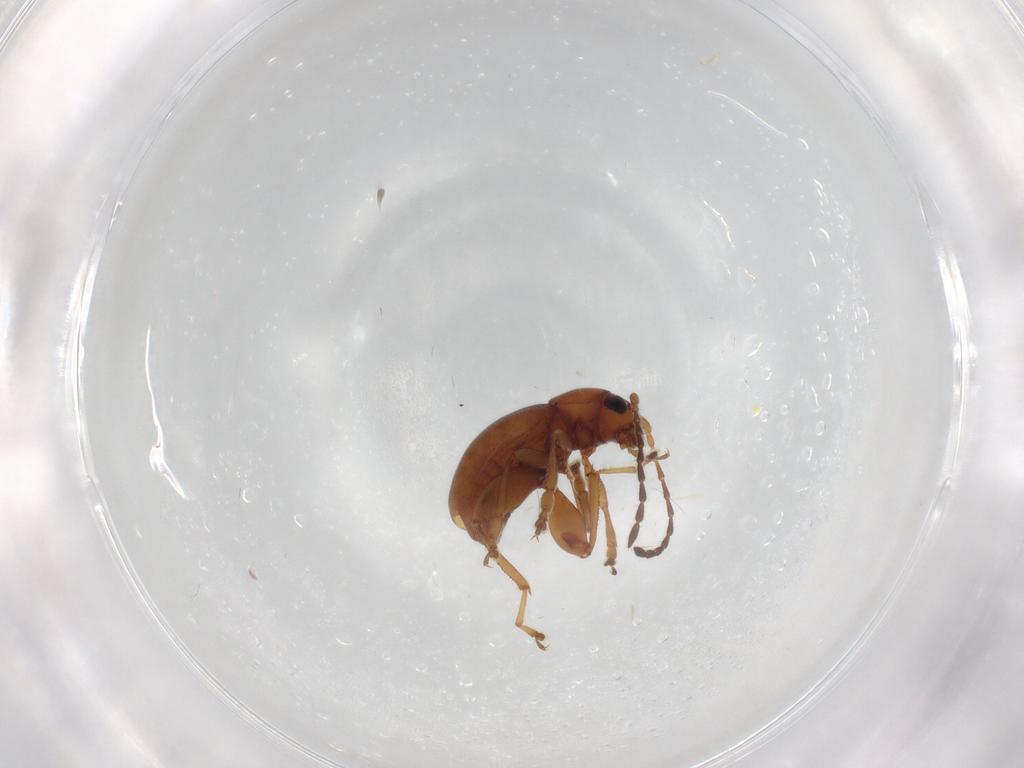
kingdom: Animalia
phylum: Arthropoda
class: Insecta
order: Coleoptera
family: Chrysomelidae
